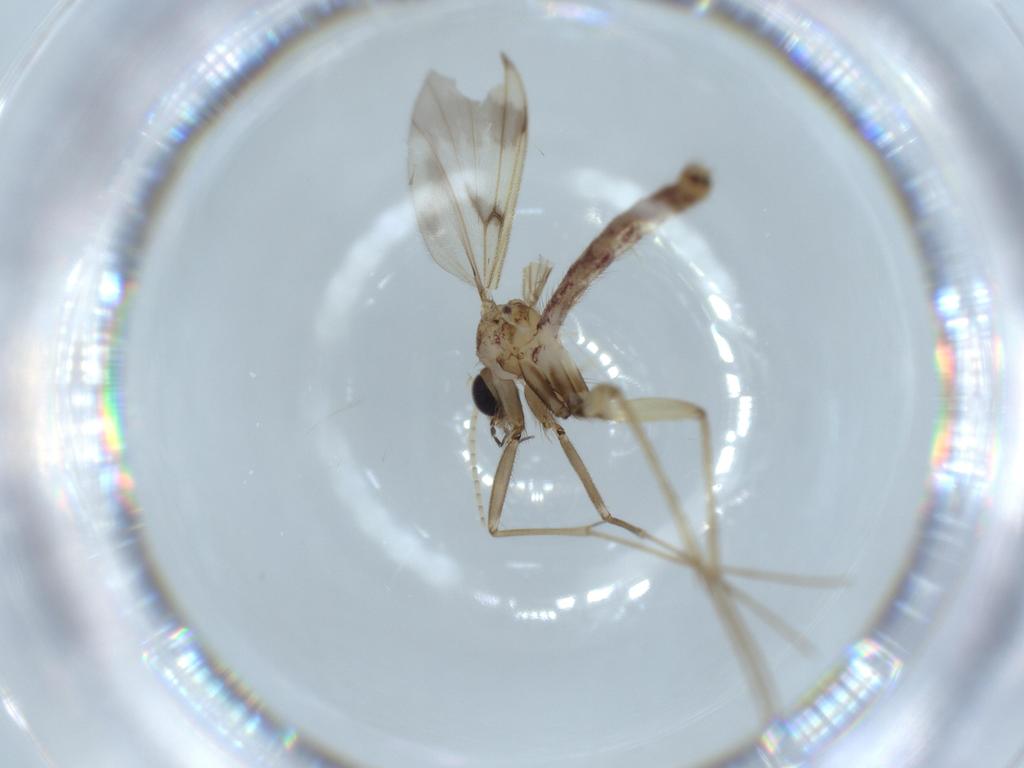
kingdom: Animalia
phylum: Arthropoda
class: Insecta
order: Diptera
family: Mycetophilidae
